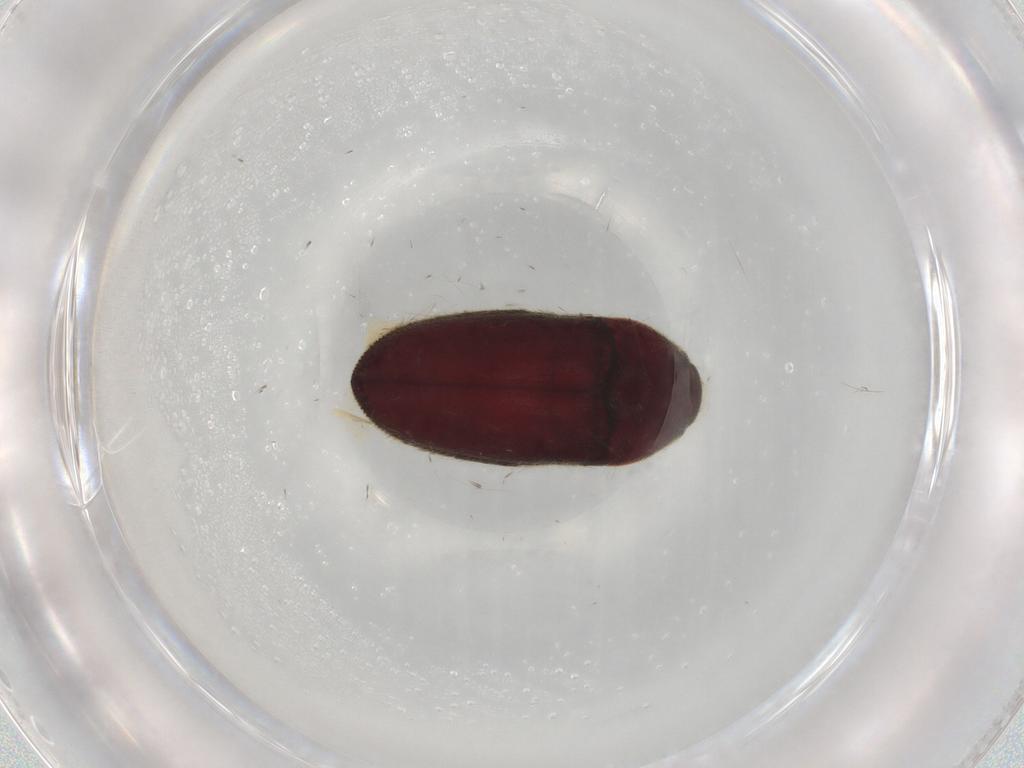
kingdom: Animalia
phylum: Arthropoda
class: Insecta
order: Coleoptera
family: Throscidae
